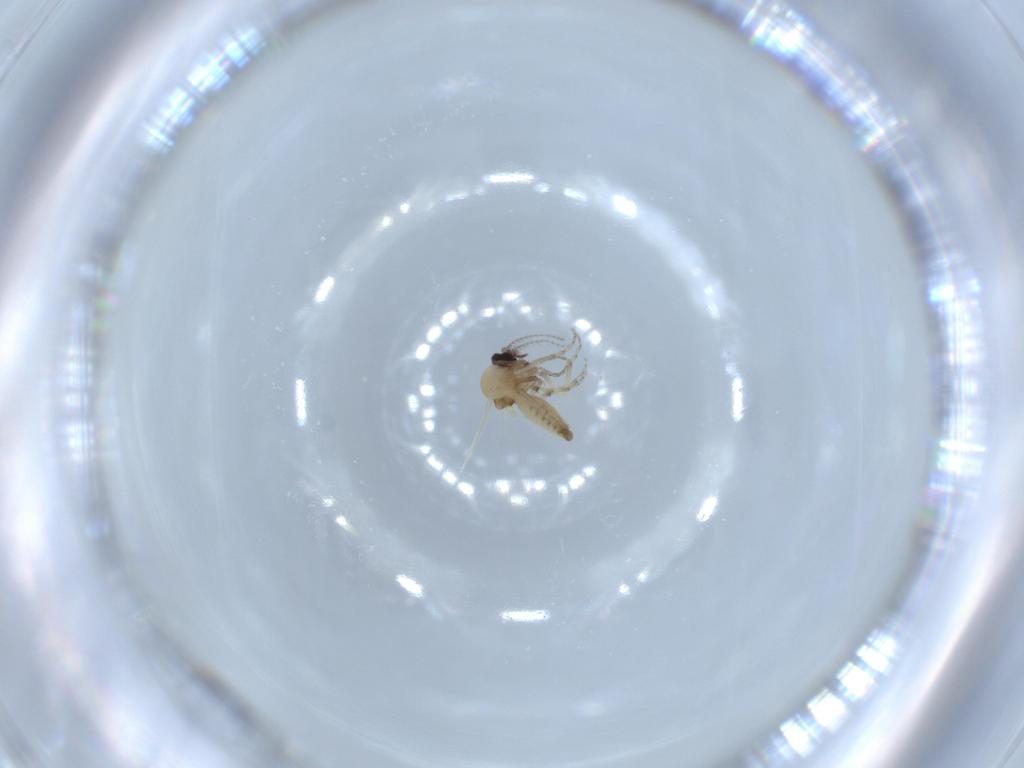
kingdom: Animalia
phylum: Arthropoda
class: Insecta
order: Diptera
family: Ceratopogonidae
